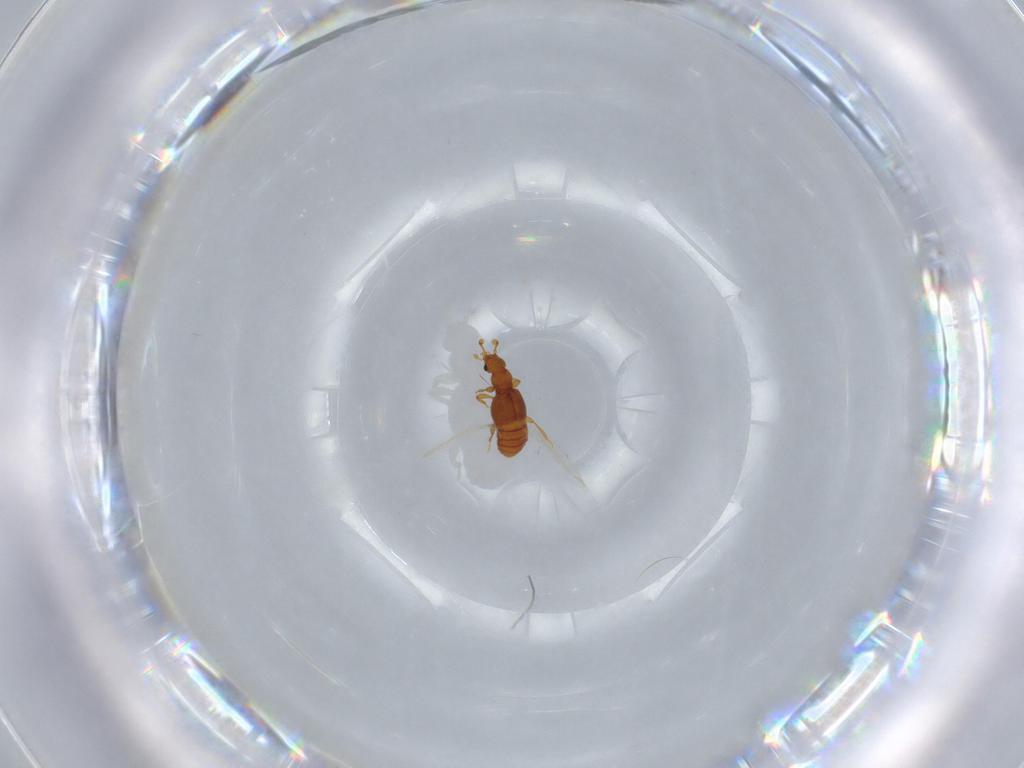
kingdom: Animalia
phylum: Arthropoda
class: Insecta
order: Coleoptera
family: Staphylinidae
